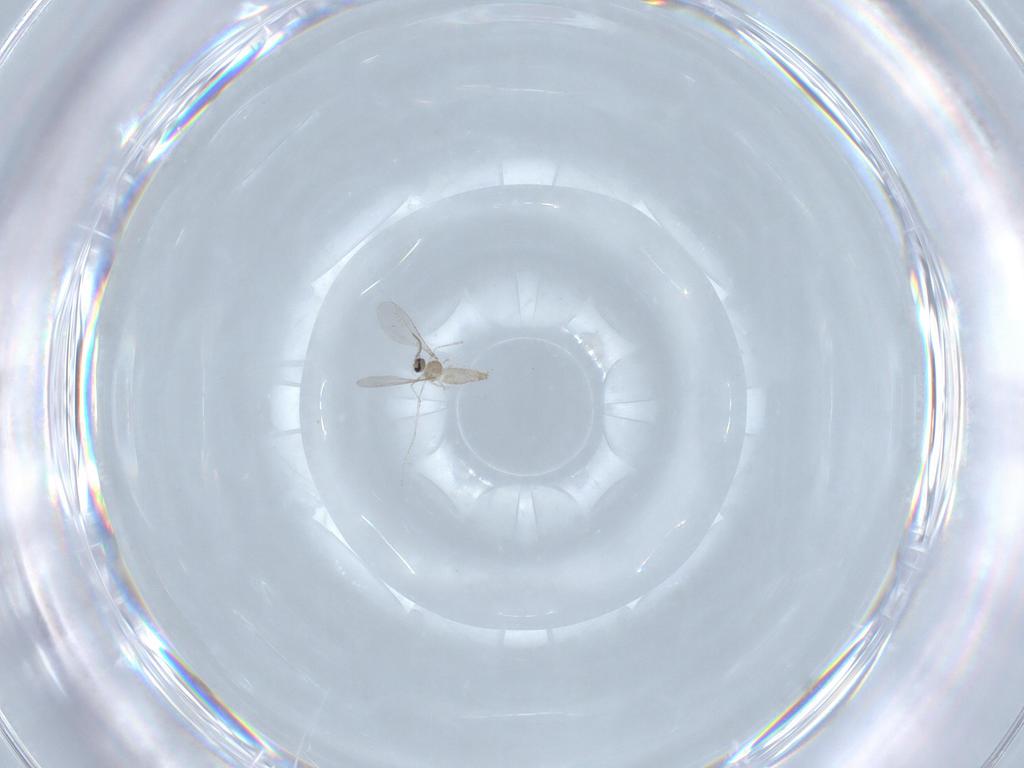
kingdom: Animalia
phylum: Arthropoda
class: Insecta
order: Diptera
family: Cecidomyiidae
